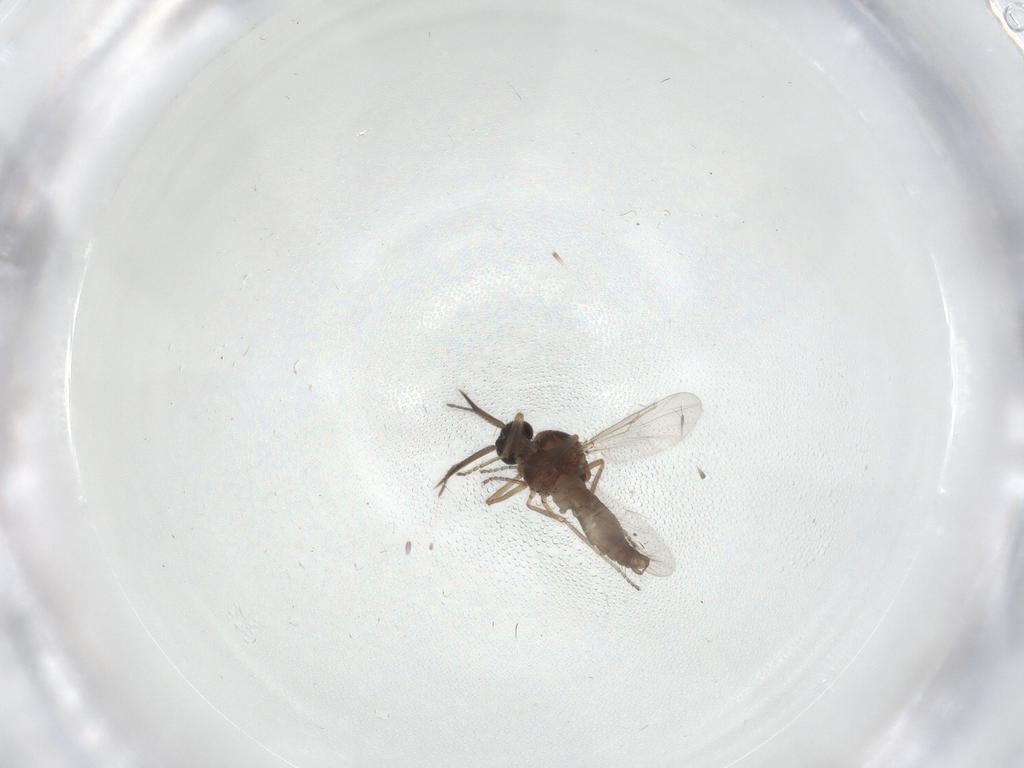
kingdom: Animalia
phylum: Arthropoda
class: Insecta
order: Diptera
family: Ceratopogonidae
